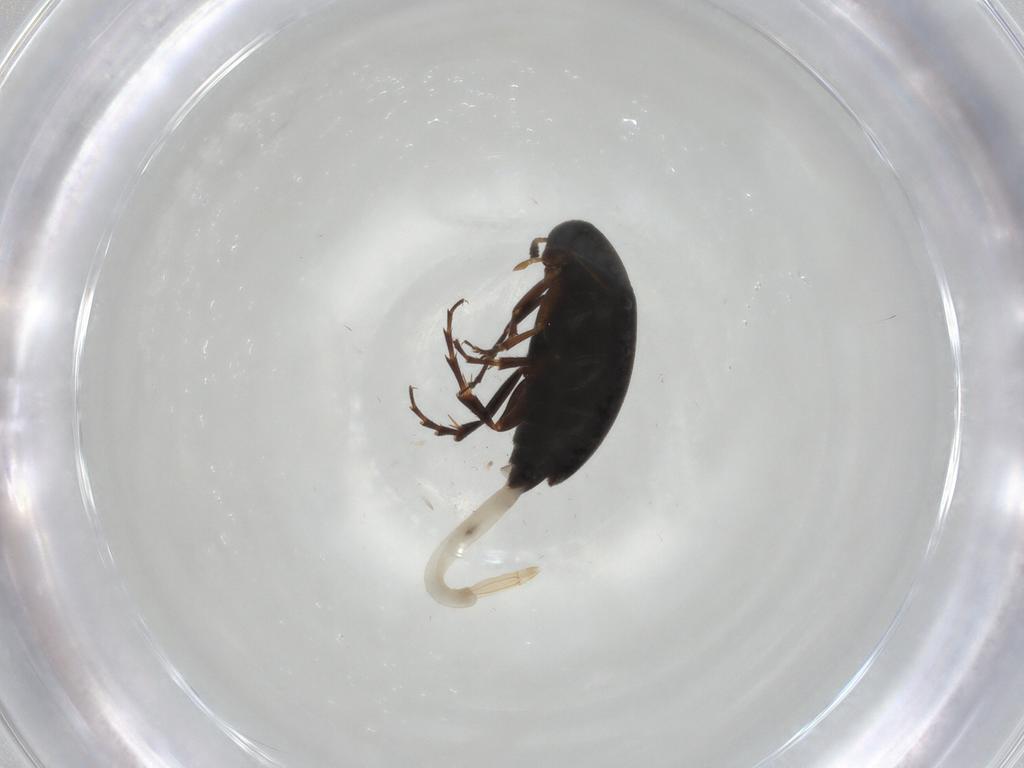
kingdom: Animalia
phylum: Arthropoda
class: Insecta
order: Coleoptera
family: Scraptiidae
